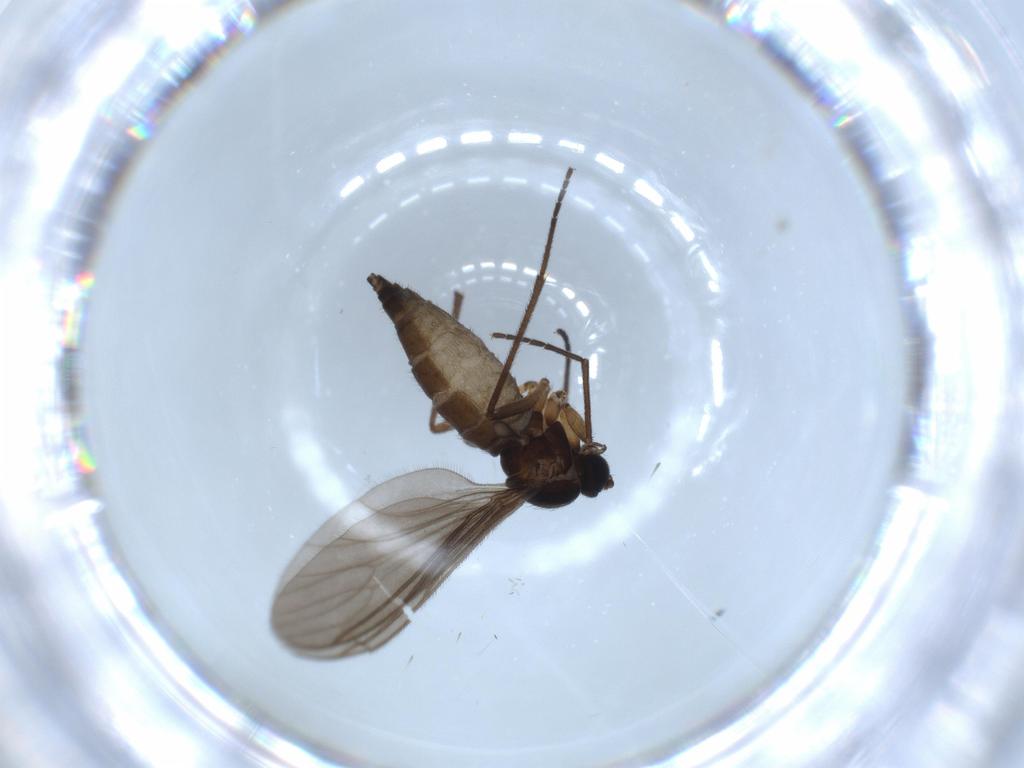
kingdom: Animalia
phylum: Arthropoda
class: Insecta
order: Diptera
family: Sciaridae
